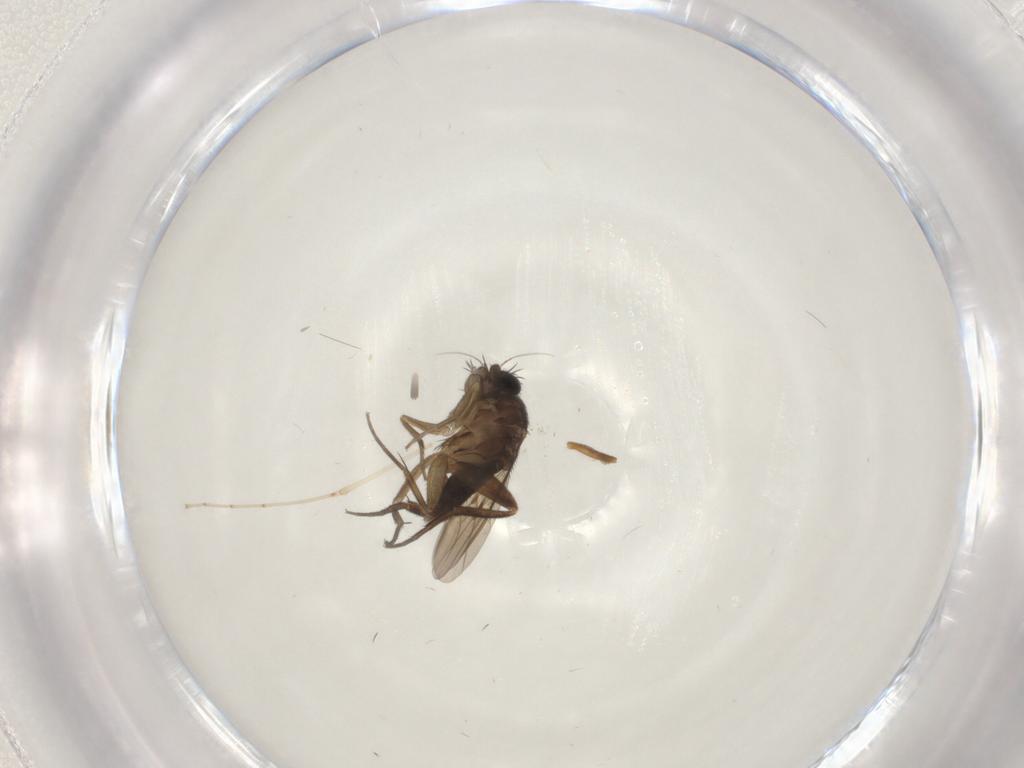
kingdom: Animalia
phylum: Arthropoda
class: Insecta
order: Diptera
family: Phoridae
